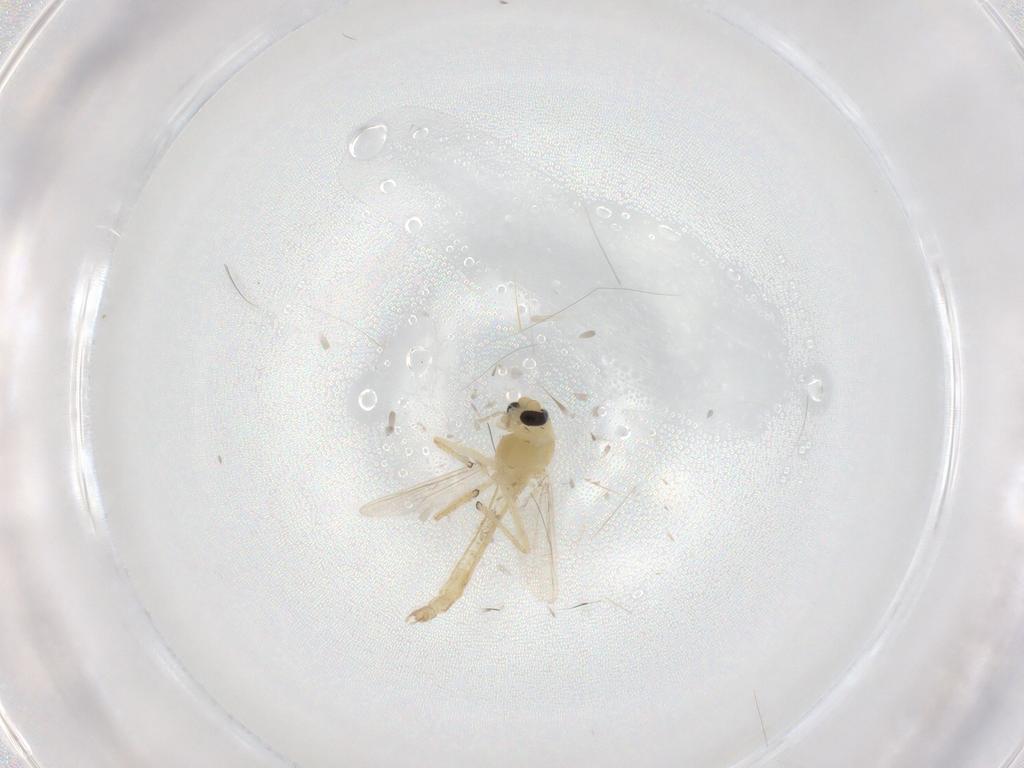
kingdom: Animalia
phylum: Arthropoda
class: Insecta
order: Diptera
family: Chironomidae
